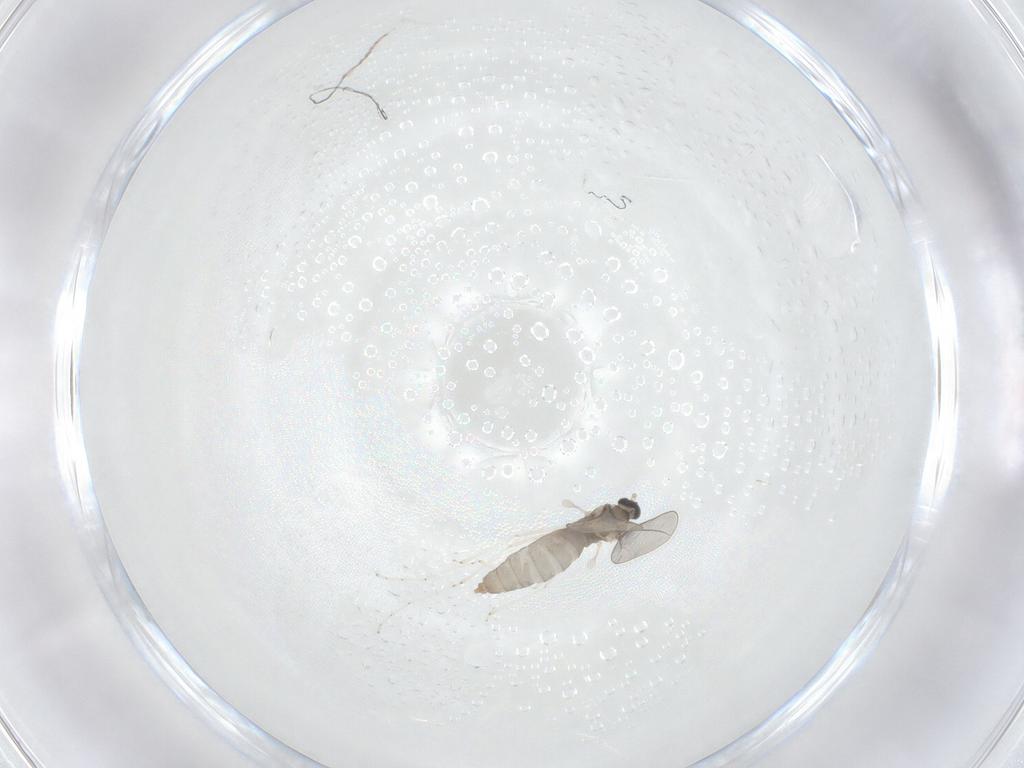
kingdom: Animalia
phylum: Arthropoda
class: Insecta
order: Diptera
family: Cecidomyiidae
